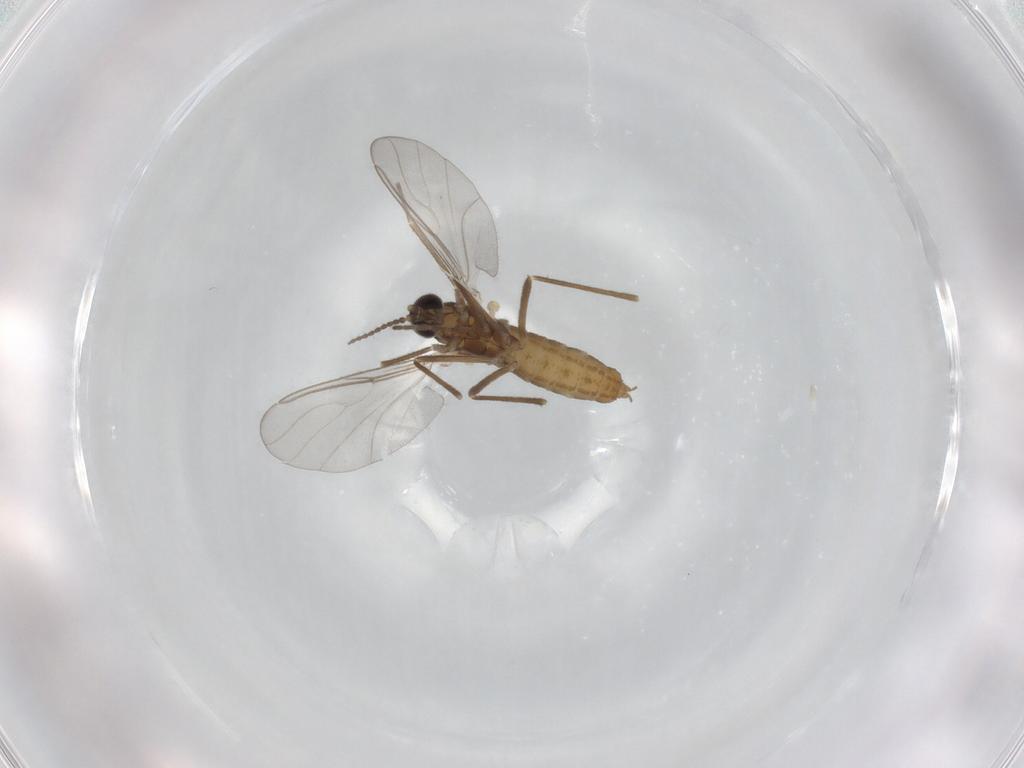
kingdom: Animalia
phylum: Arthropoda
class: Insecta
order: Diptera
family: Cecidomyiidae
